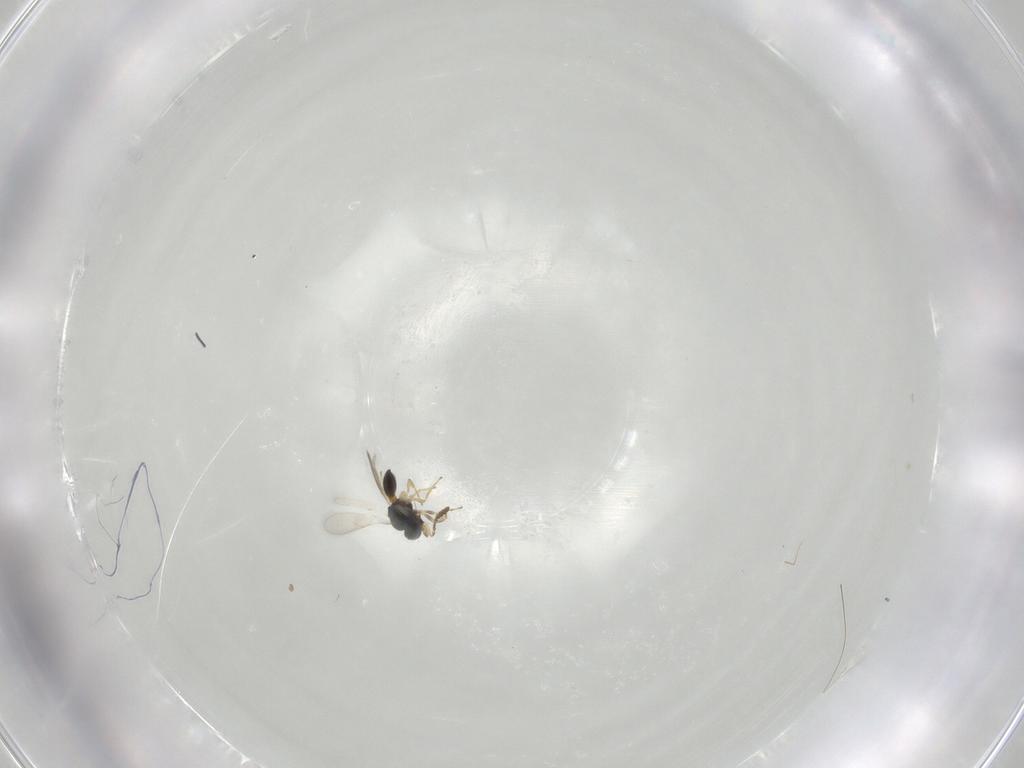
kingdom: Animalia
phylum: Arthropoda
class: Insecta
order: Hymenoptera
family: Scelionidae
